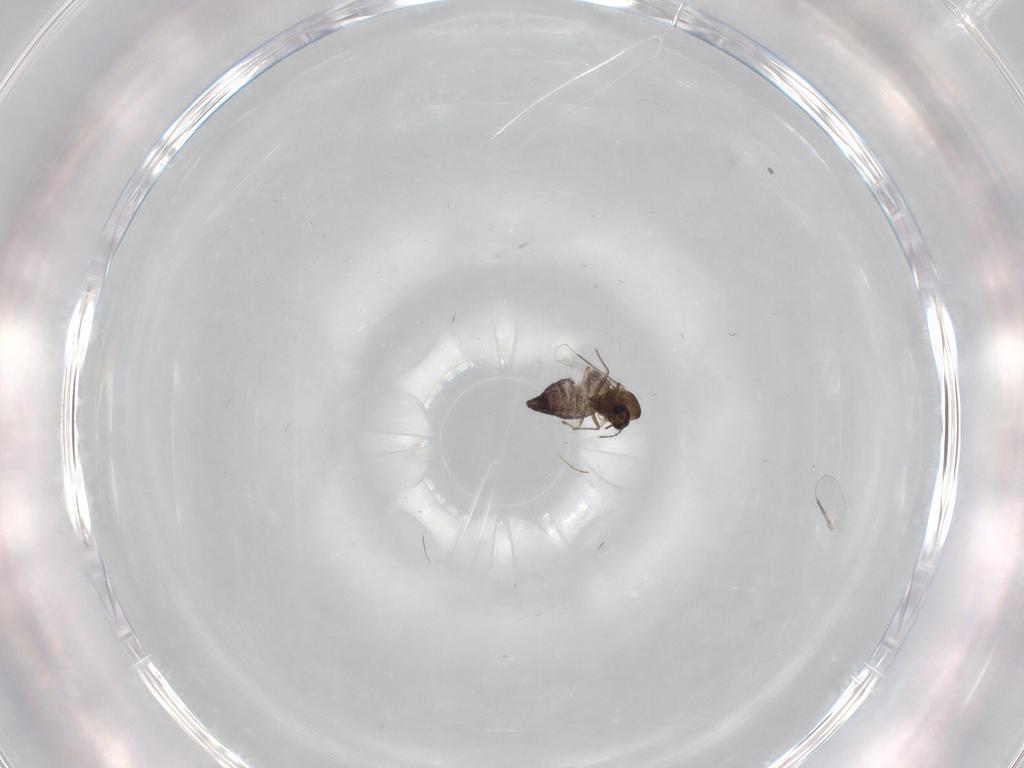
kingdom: Animalia
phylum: Arthropoda
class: Insecta
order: Diptera
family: Chironomidae
